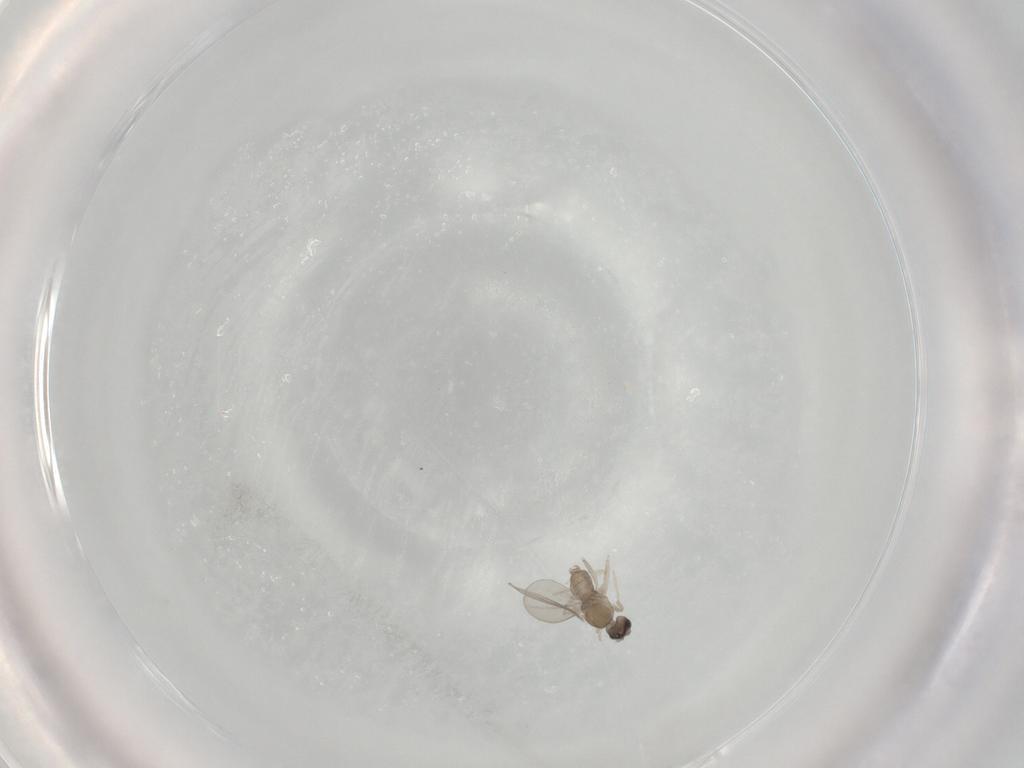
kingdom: Animalia
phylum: Arthropoda
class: Insecta
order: Diptera
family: Cecidomyiidae
